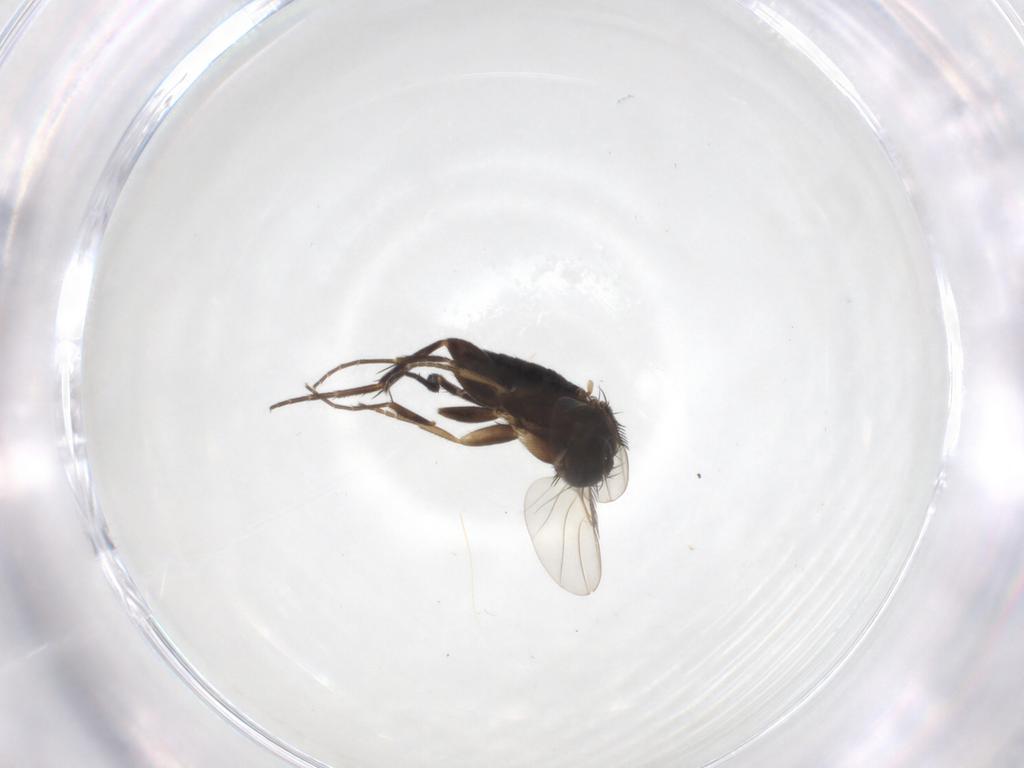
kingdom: Animalia
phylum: Arthropoda
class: Insecta
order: Diptera
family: Phoridae
